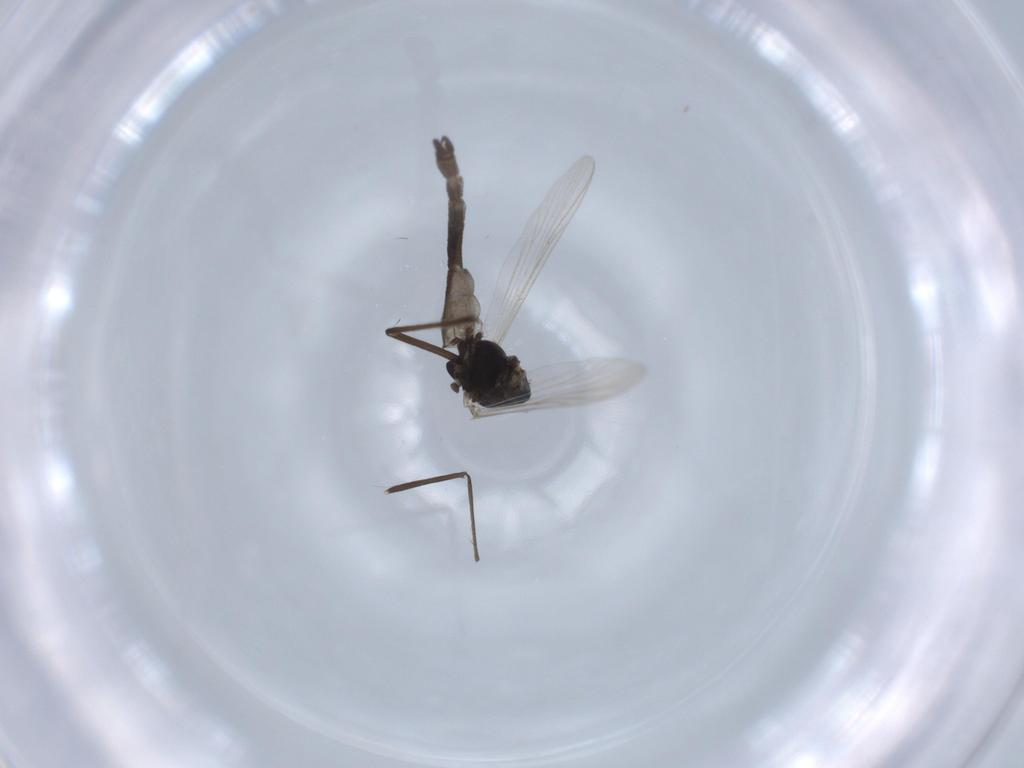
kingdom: Animalia
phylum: Arthropoda
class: Insecta
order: Diptera
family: Chironomidae
